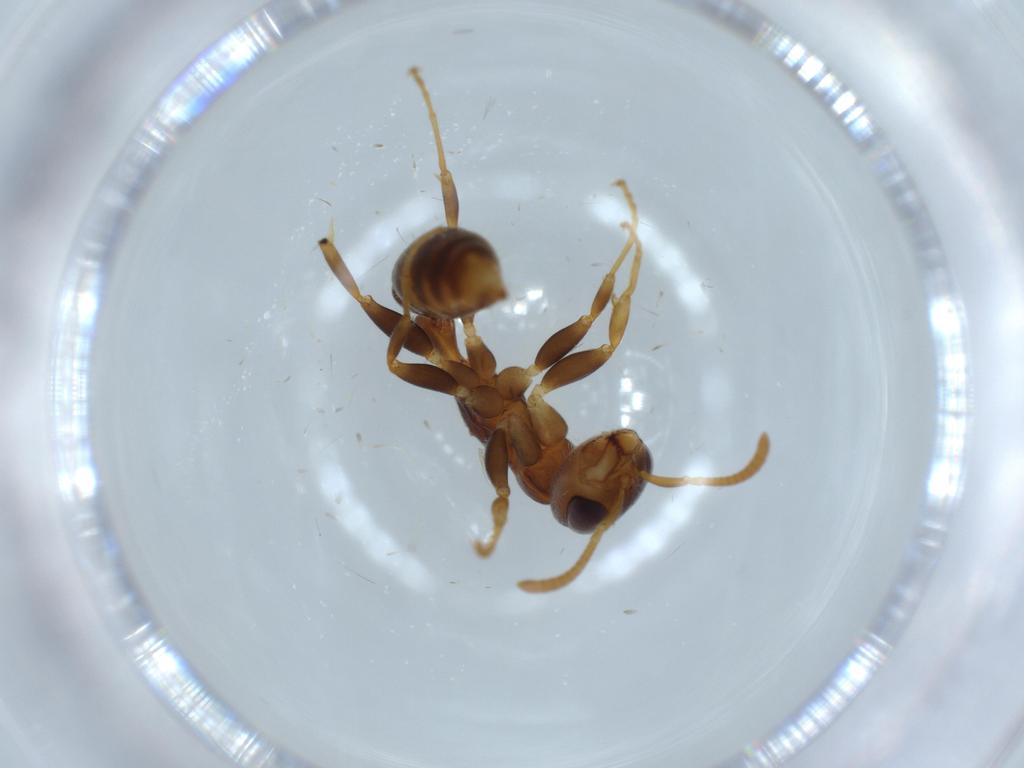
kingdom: Animalia
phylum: Arthropoda
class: Insecta
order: Hymenoptera
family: Formicidae
